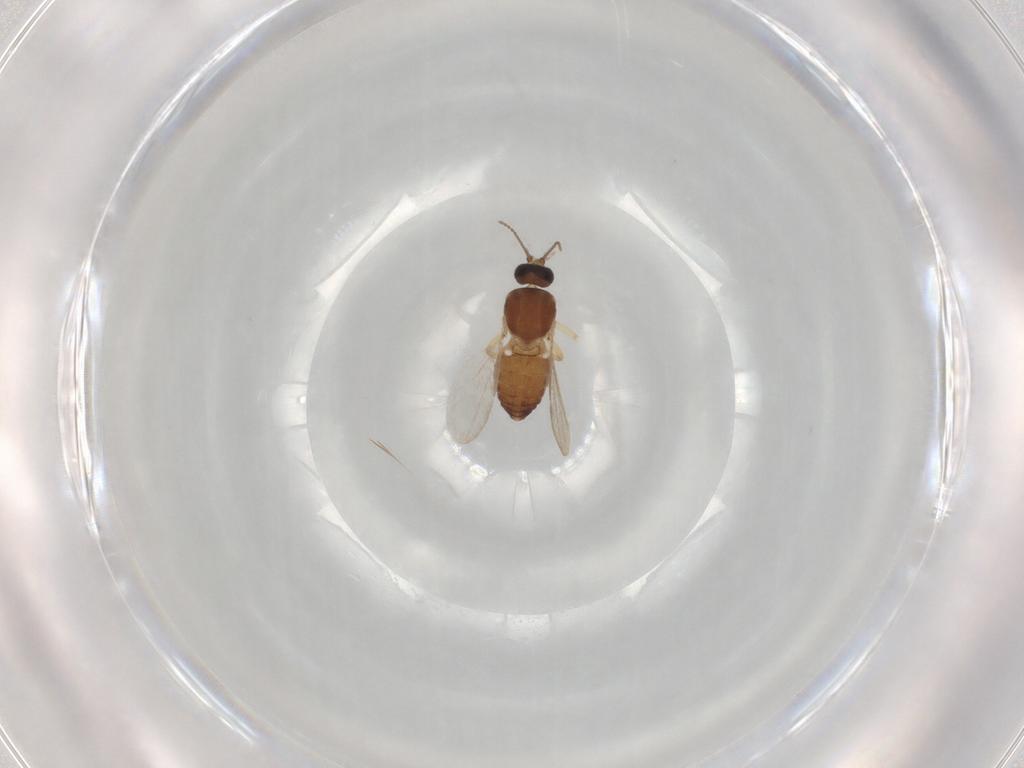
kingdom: Animalia
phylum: Arthropoda
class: Insecta
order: Diptera
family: Ceratopogonidae
